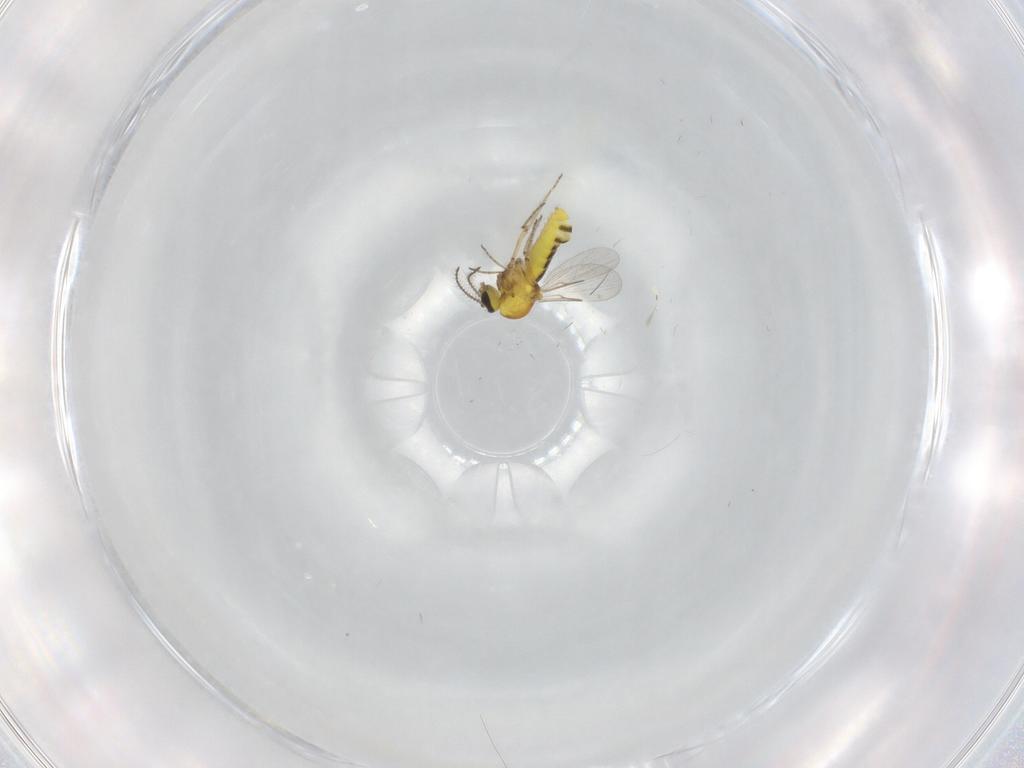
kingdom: Animalia
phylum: Arthropoda
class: Insecta
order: Diptera
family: Ceratopogonidae
